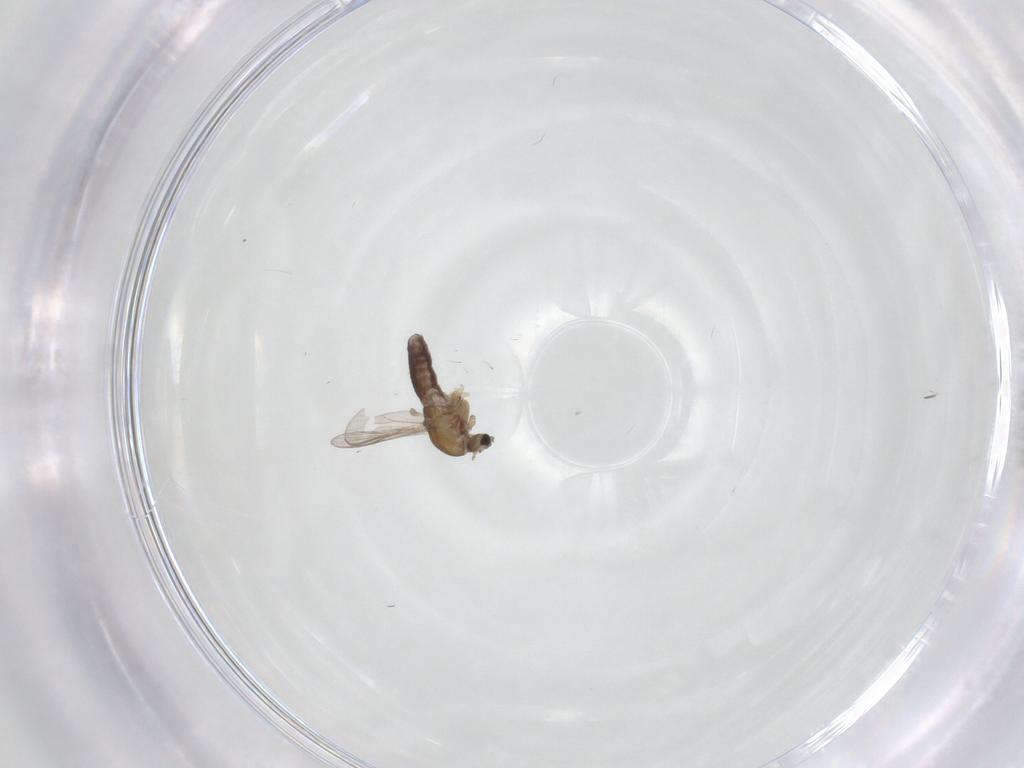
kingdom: Animalia
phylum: Arthropoda
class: Insecta
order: Diptera
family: Chironomidae
